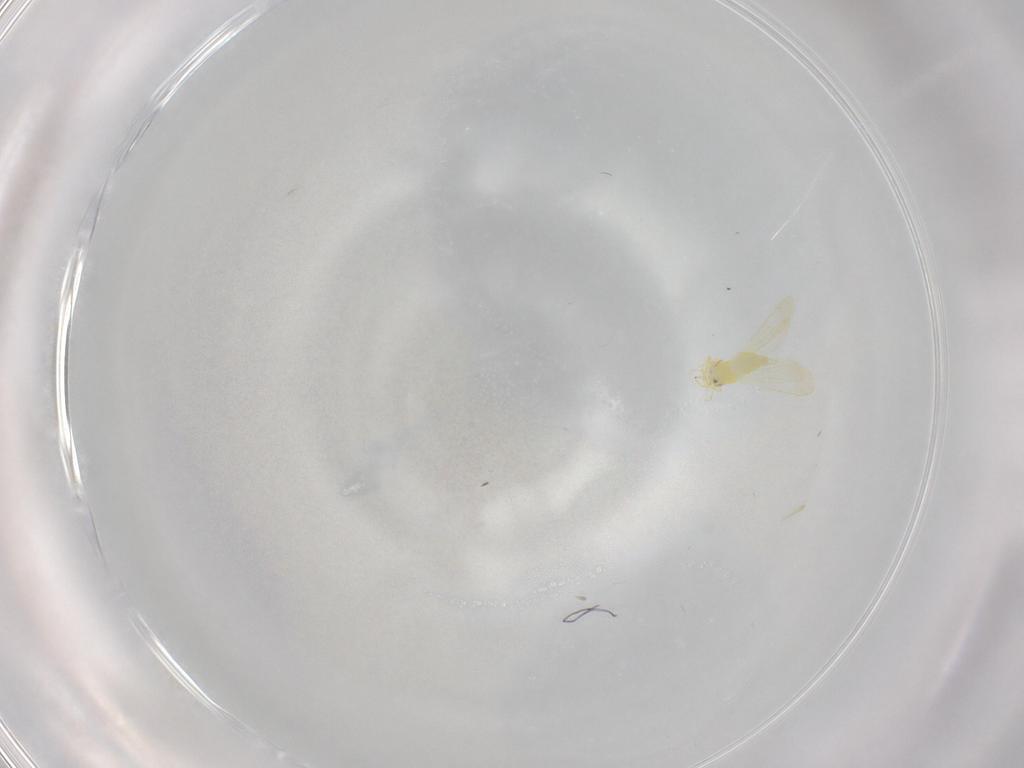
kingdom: Animalia
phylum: Arthropoda
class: Insecta
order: Hemiptera
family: Aleyrodidae
